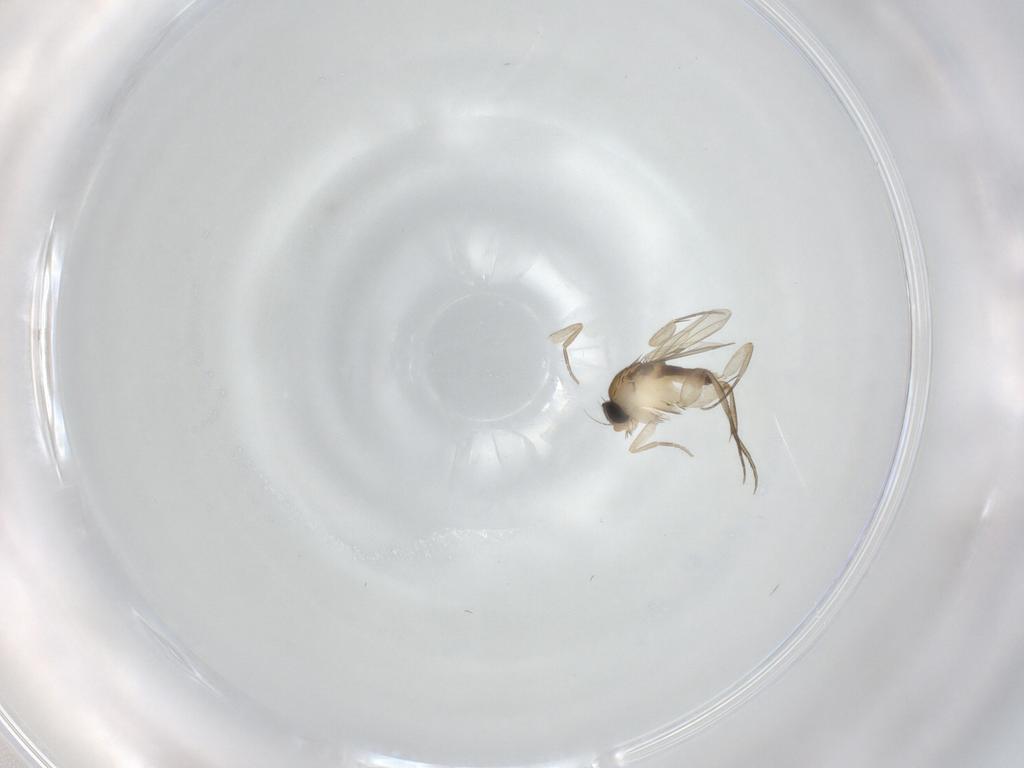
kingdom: Animalia
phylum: Arthropoda
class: Insecta
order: Diptera
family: Phoridae
